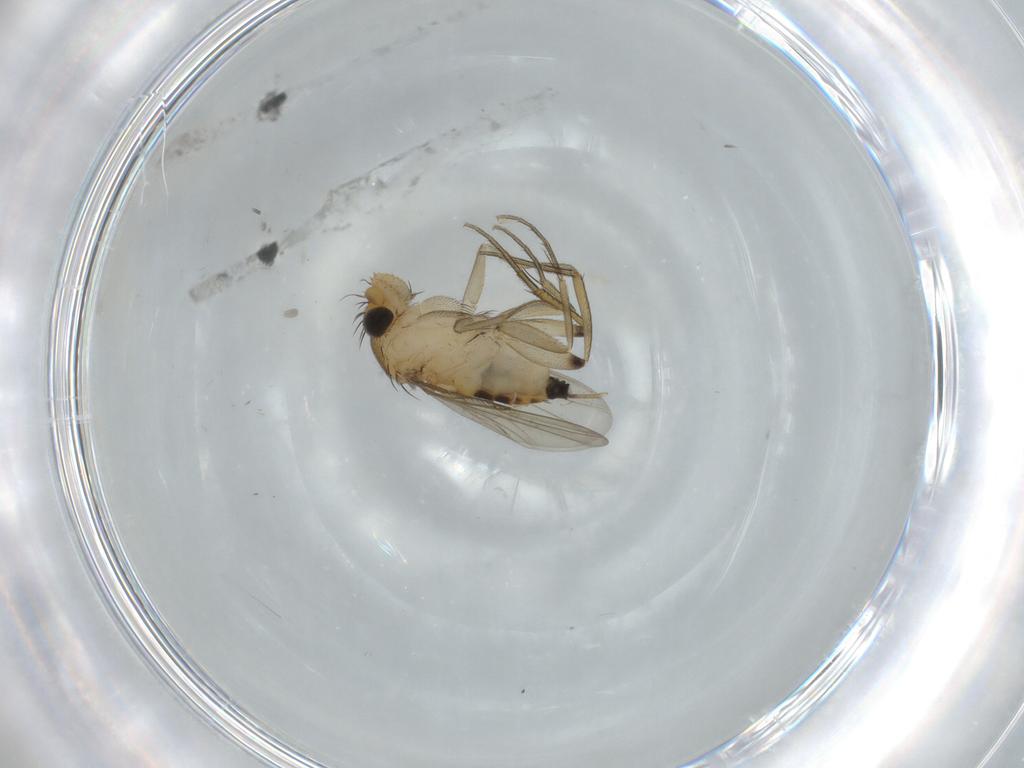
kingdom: Animalia
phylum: Arthropoda
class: Insecta
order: Diptera
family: Phoridae
